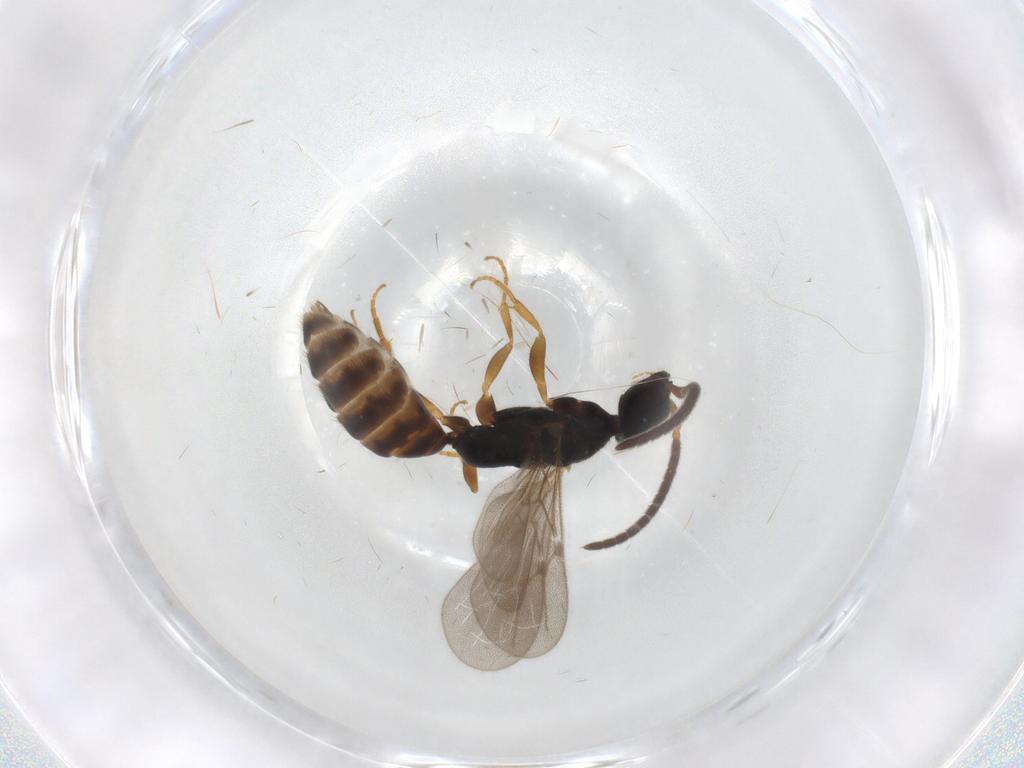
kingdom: Animalia
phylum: Arthropoda
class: Insecta
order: Hymenoptera
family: Bethylidae
